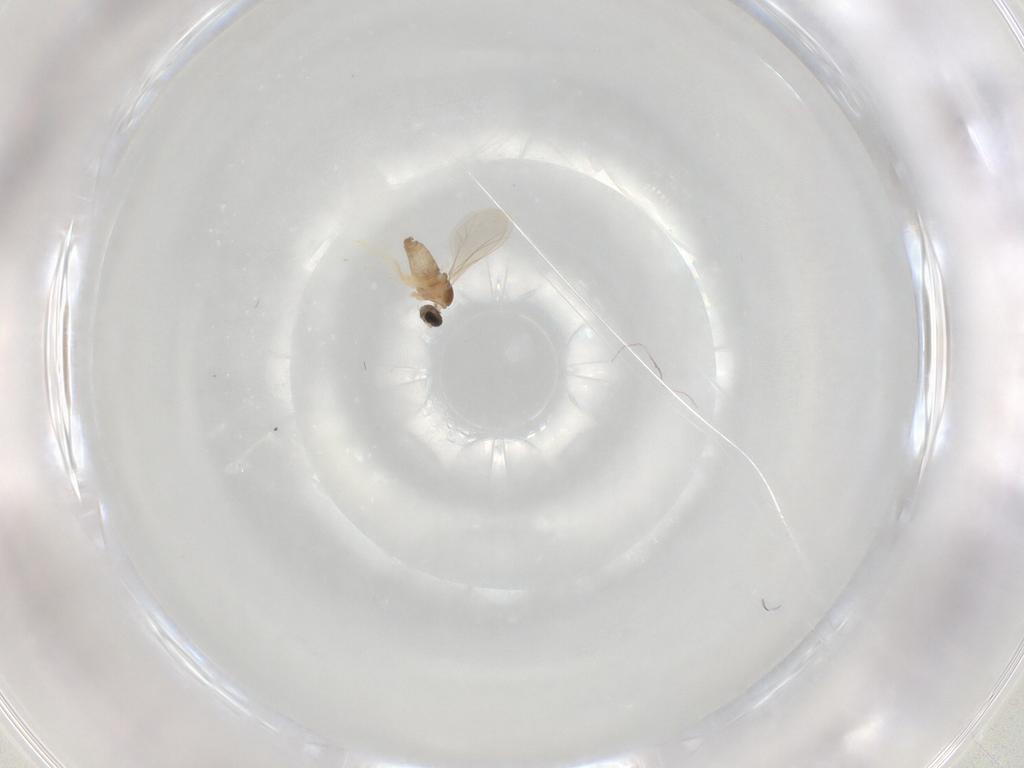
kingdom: Animalia
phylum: Arthropoda
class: Insecta
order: Diptera
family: Cecidomyiidae
